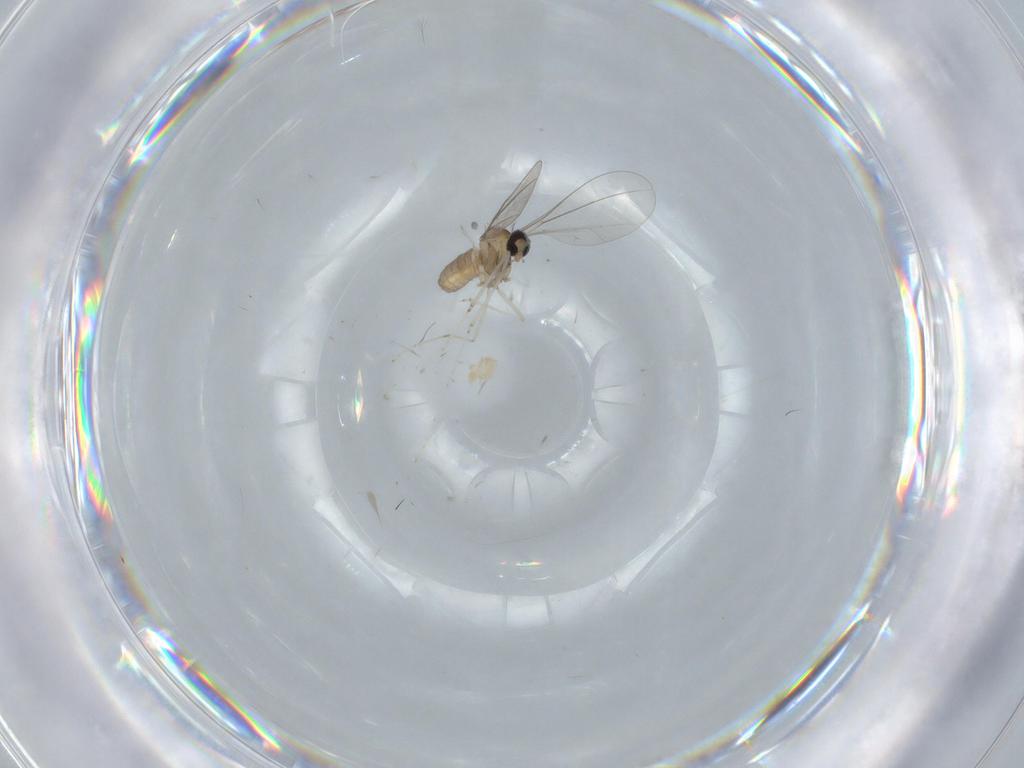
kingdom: Animalia
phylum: Arthropoda
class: Insecta
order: Diptera
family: Cecidomyiidae
